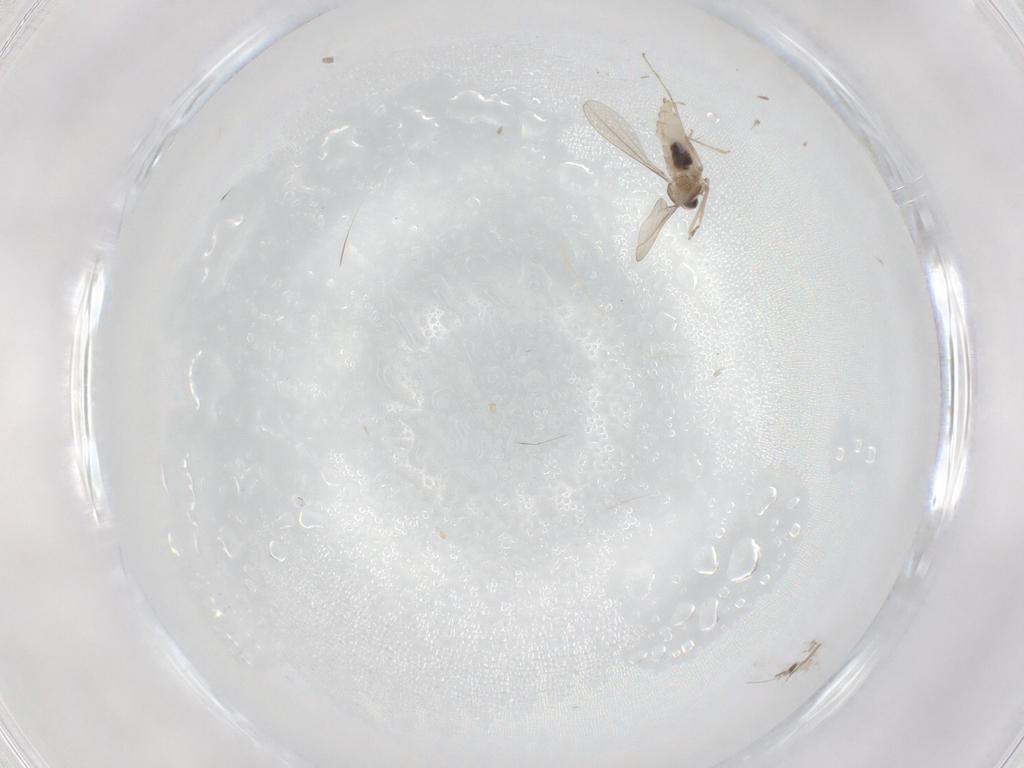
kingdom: Animalia
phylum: Arthropoda
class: Insecta
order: Diptera
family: Cecidomyiidae
